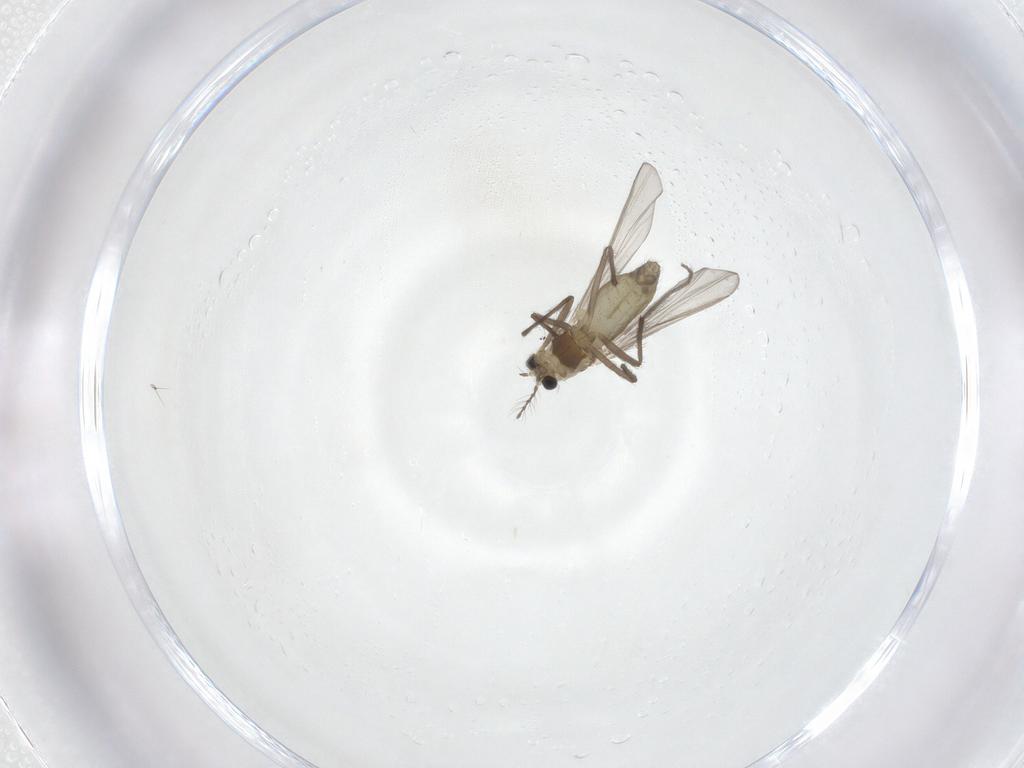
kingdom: Animalia
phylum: Arthropoda
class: Insecta
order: Diptera
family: Chironomidae
